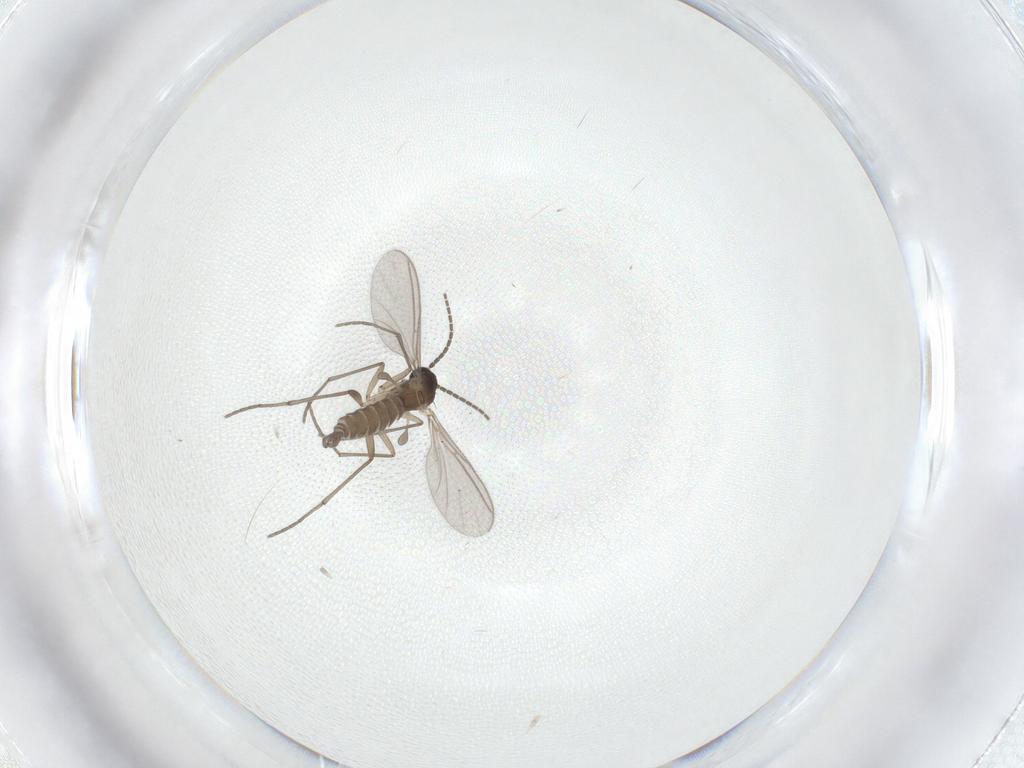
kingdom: Animalia
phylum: Arthropoda
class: Insecta
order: Diptera
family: Sciaridae
